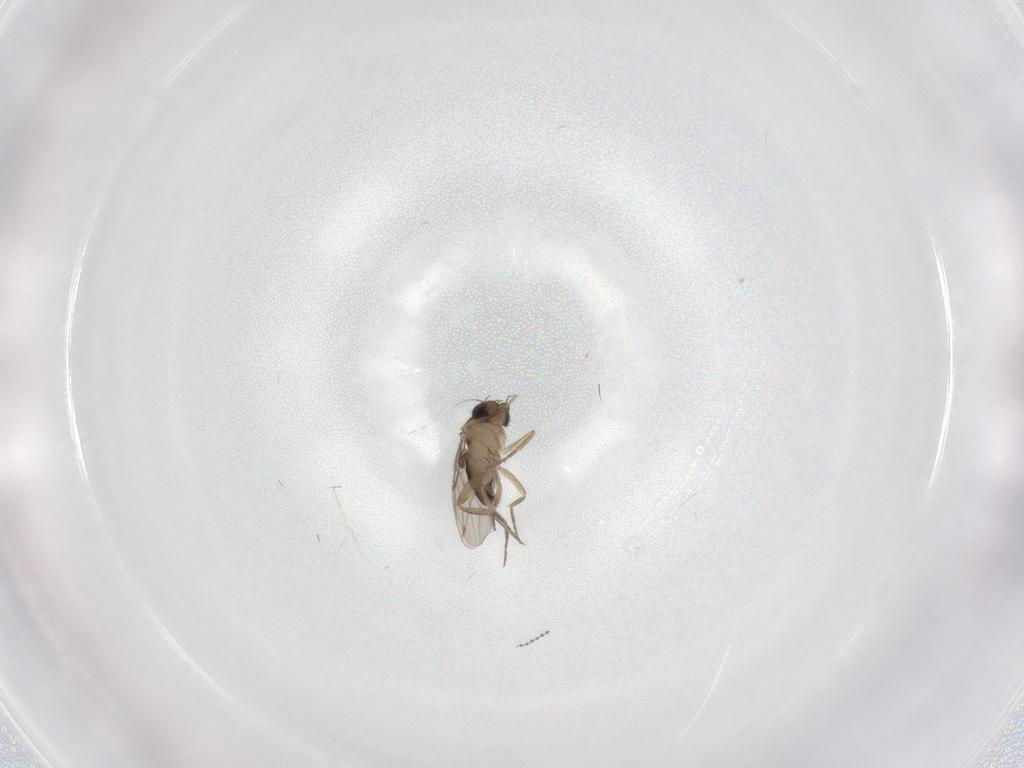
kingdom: Animalia
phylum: Arthropoda
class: Insecta
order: Diptera
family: Phoridae
